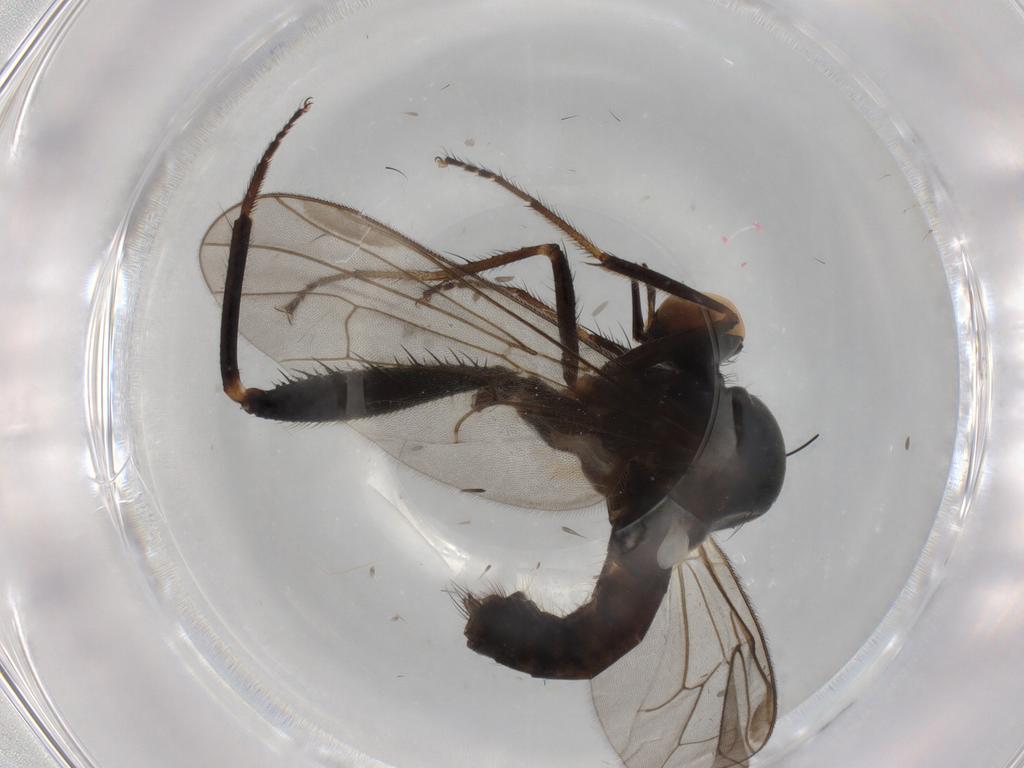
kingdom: Animalia
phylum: Arthropoda
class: Insecta
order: Diptera
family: Hybotidae
